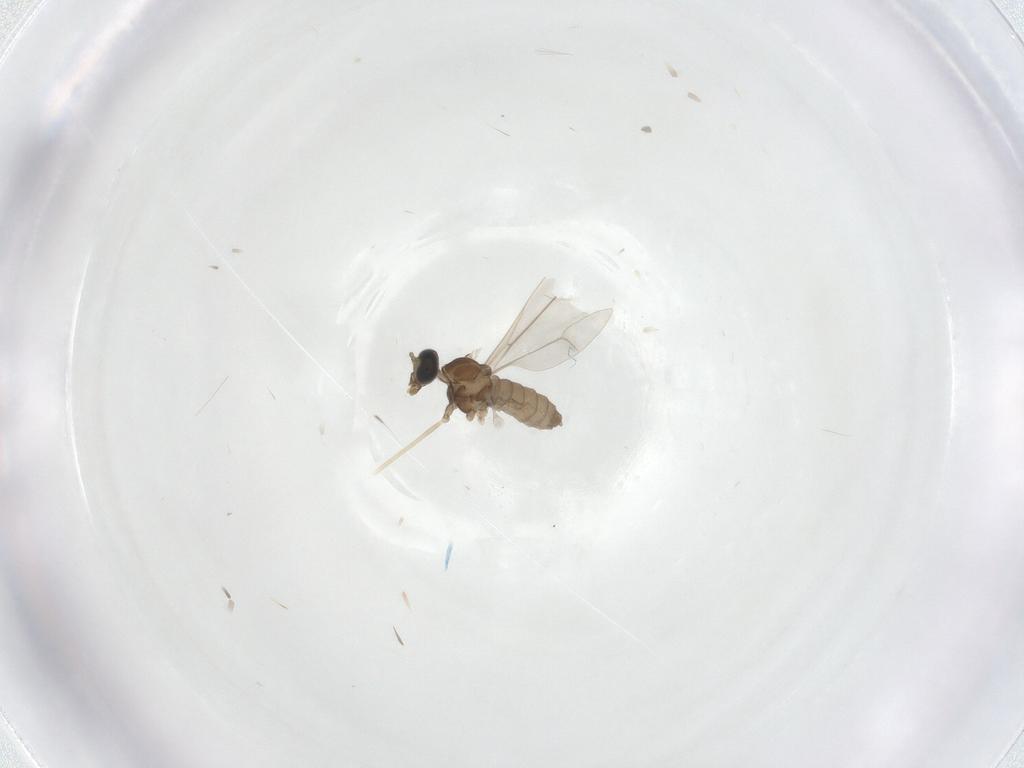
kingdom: Animalia
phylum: Arthropoda
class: Insecta
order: Diptera
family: Cecidomyiidae
